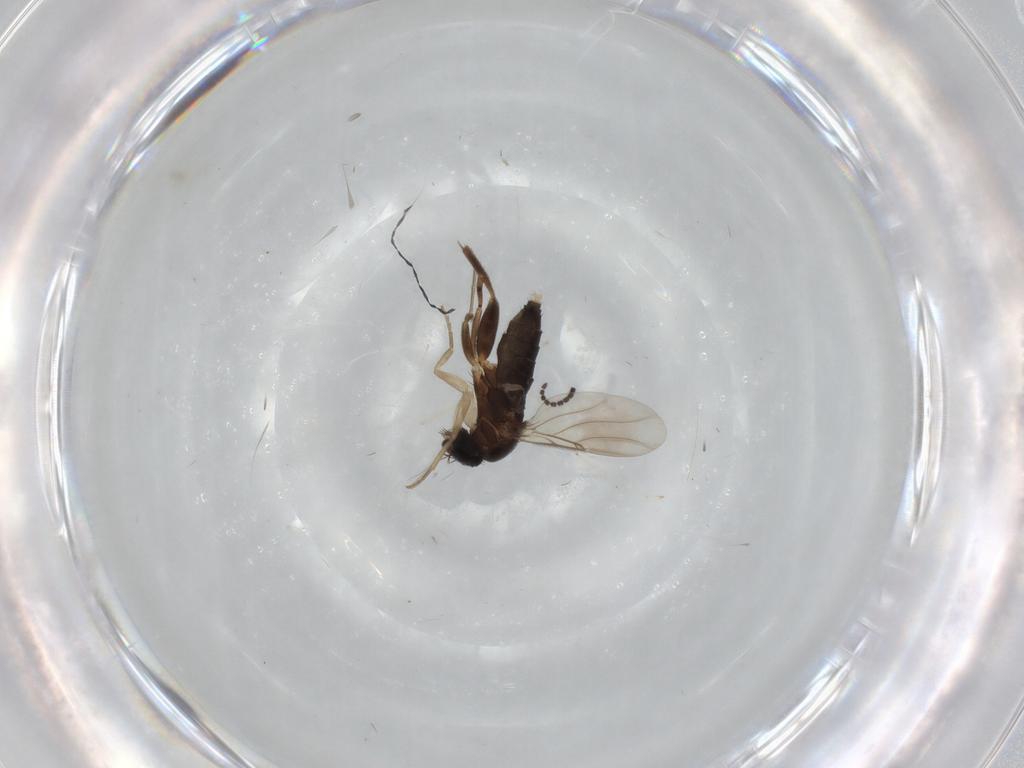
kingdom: Animalia
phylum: Arthropoda
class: Insecta
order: Diptera
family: Phoridae
